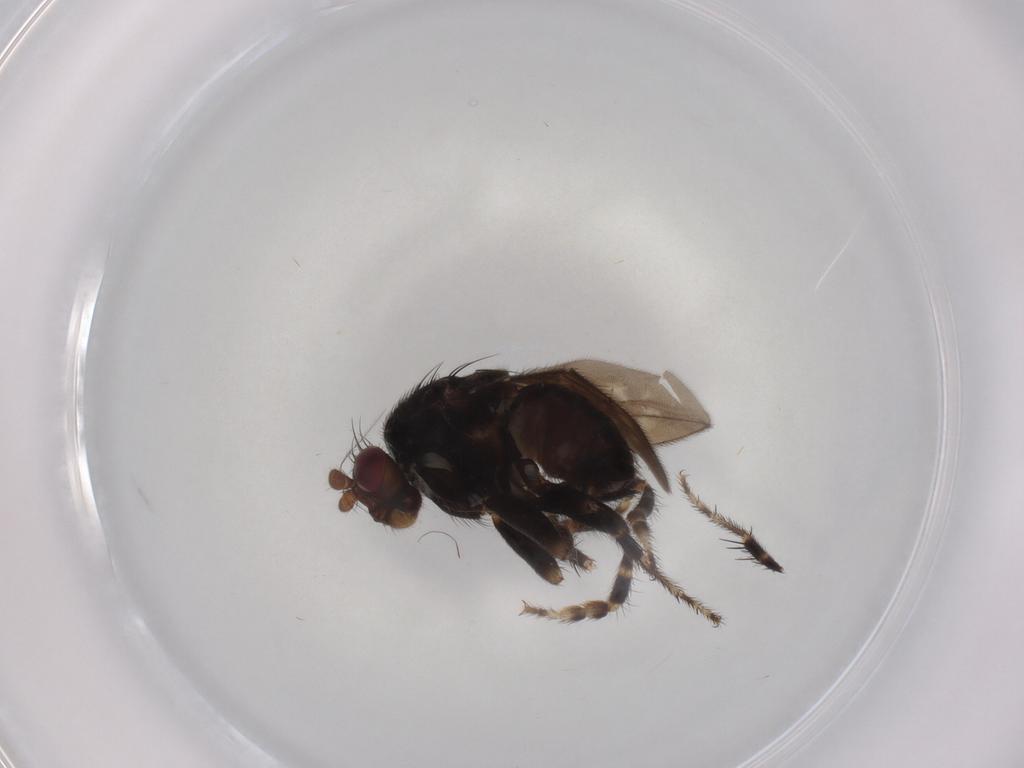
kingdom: Animalia
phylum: Arthropoda
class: Insecta
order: Diptera
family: Sphaeroceridae
